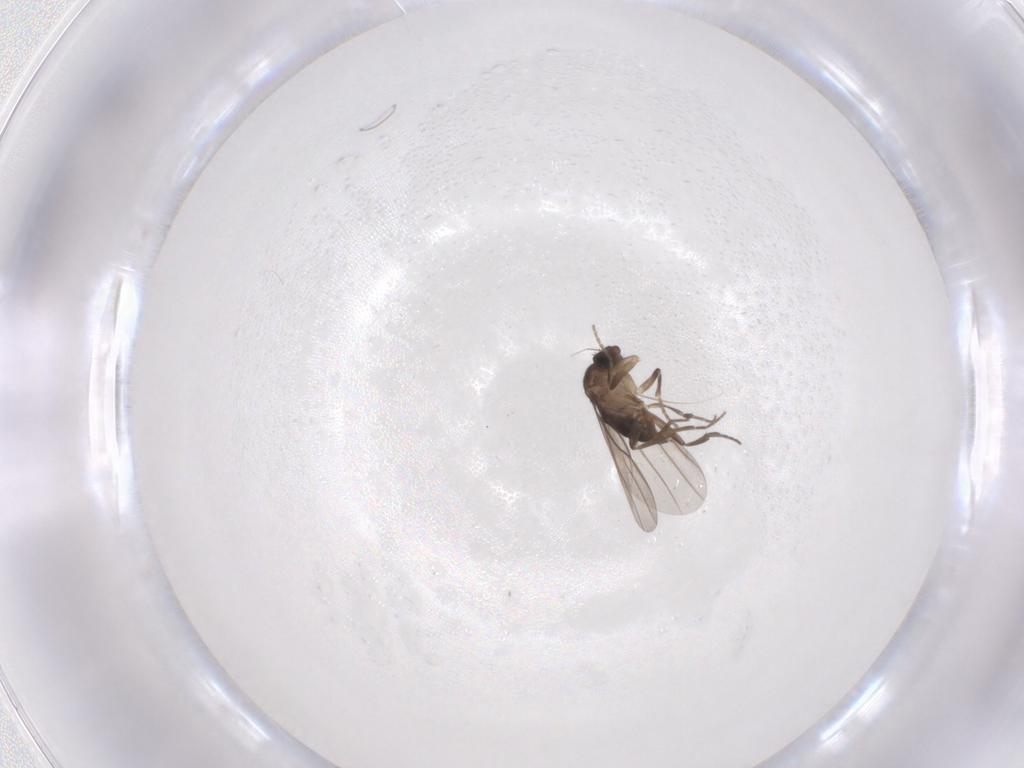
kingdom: Animalia
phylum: Arthropoda
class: Insecta
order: Diptera
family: Phoridae
